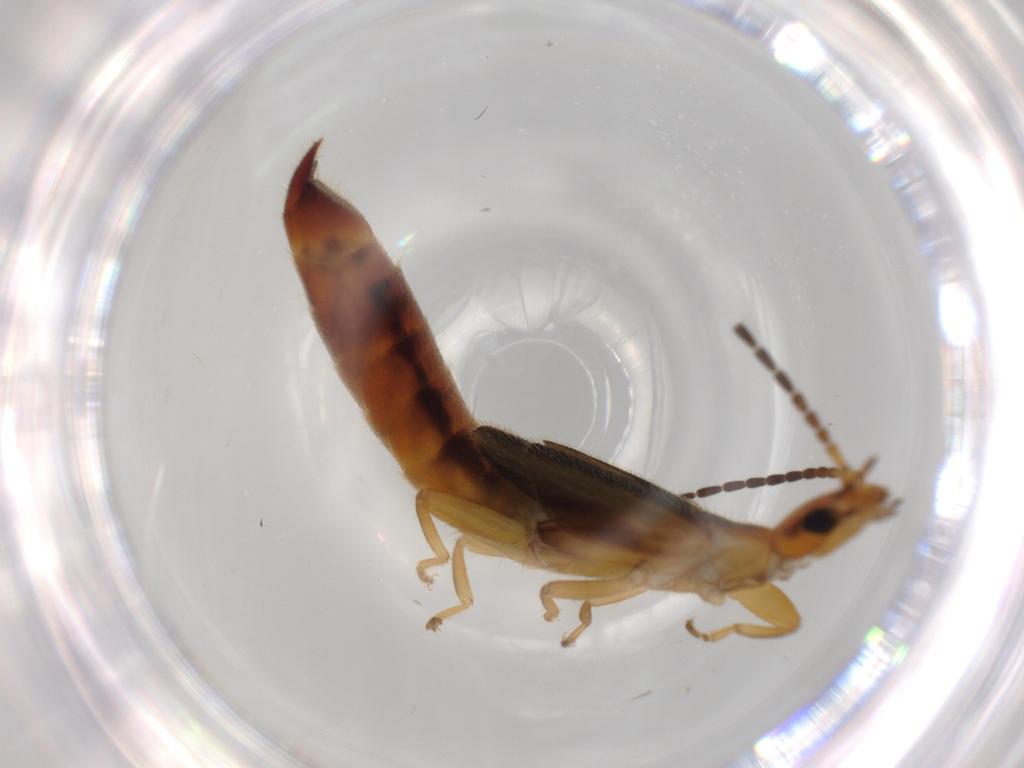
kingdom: Animalia
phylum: Arthropoda
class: Insecta
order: Dermaptera
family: Forficulidae
